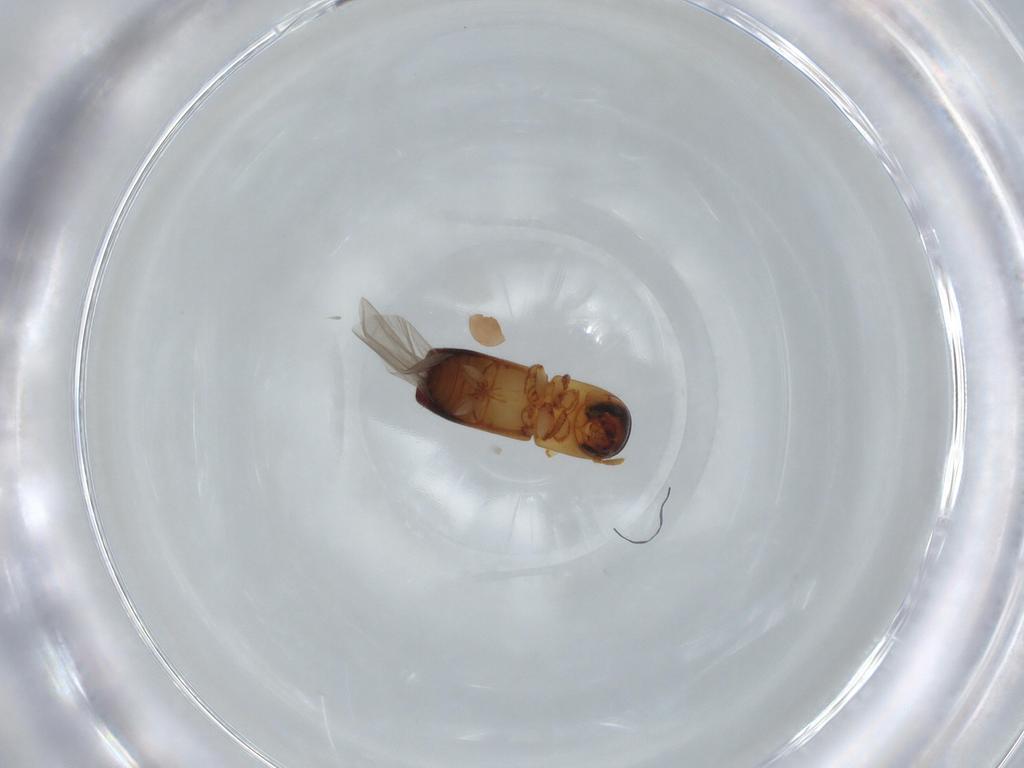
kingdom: Animalia
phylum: Arthropoda
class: Insecta
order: Coleoptera
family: Curculionidae
